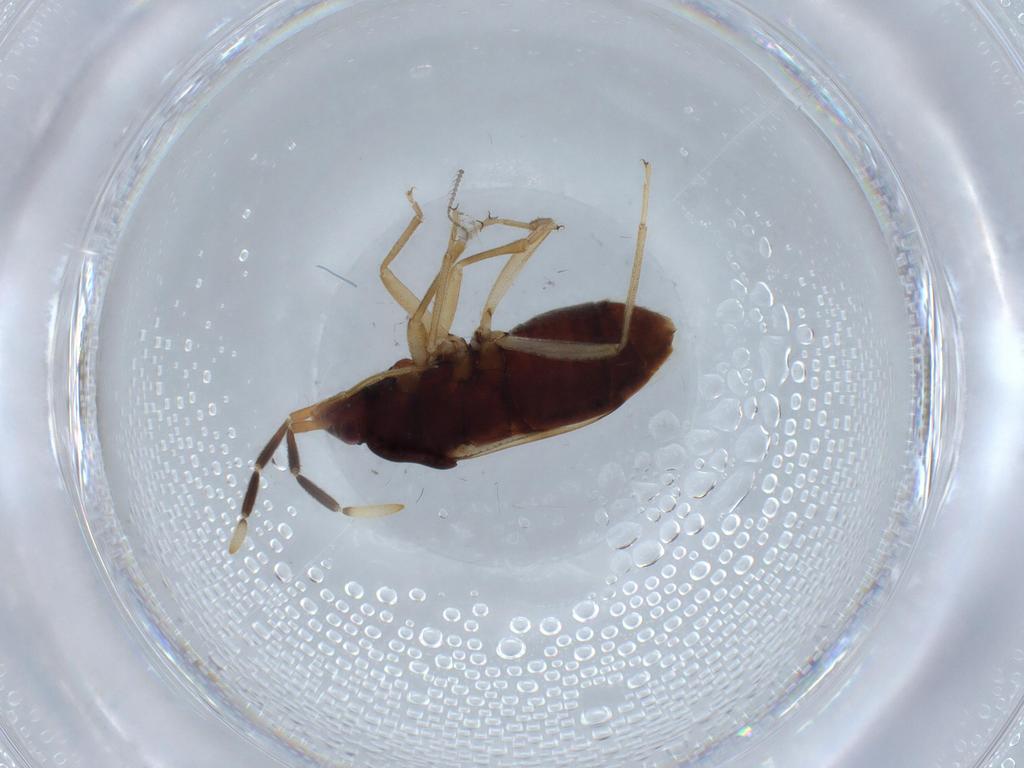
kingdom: Animalia
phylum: Arthropoda
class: Insecta
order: Hemiptera
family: Rhyparochromidae
